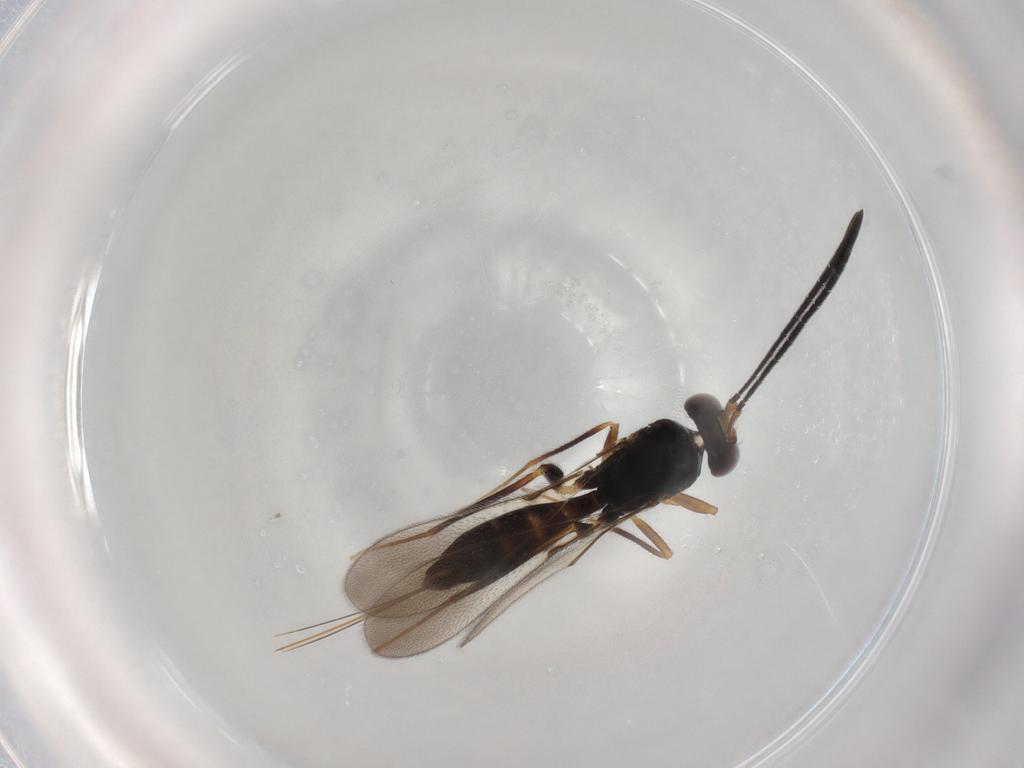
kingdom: Animalia
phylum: Arthropoda
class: Insecta
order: Hymenoptera
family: Mymaridae
